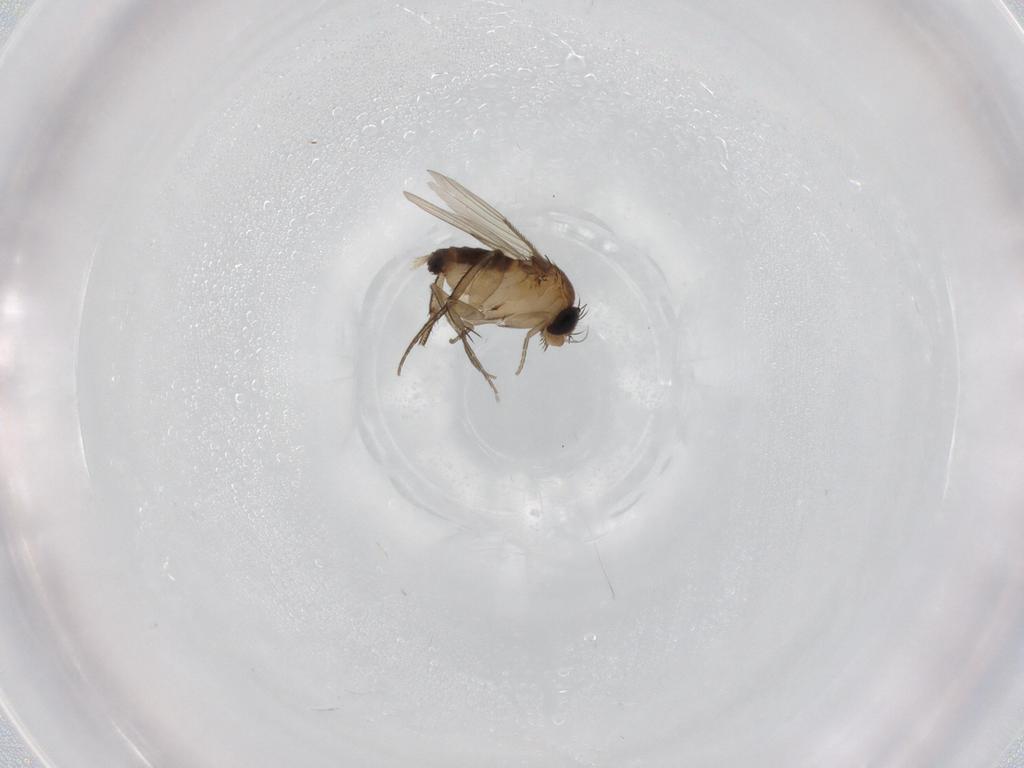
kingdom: Animalia
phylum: Arthropoda
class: Insecta
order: Diptera
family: Phoridae
